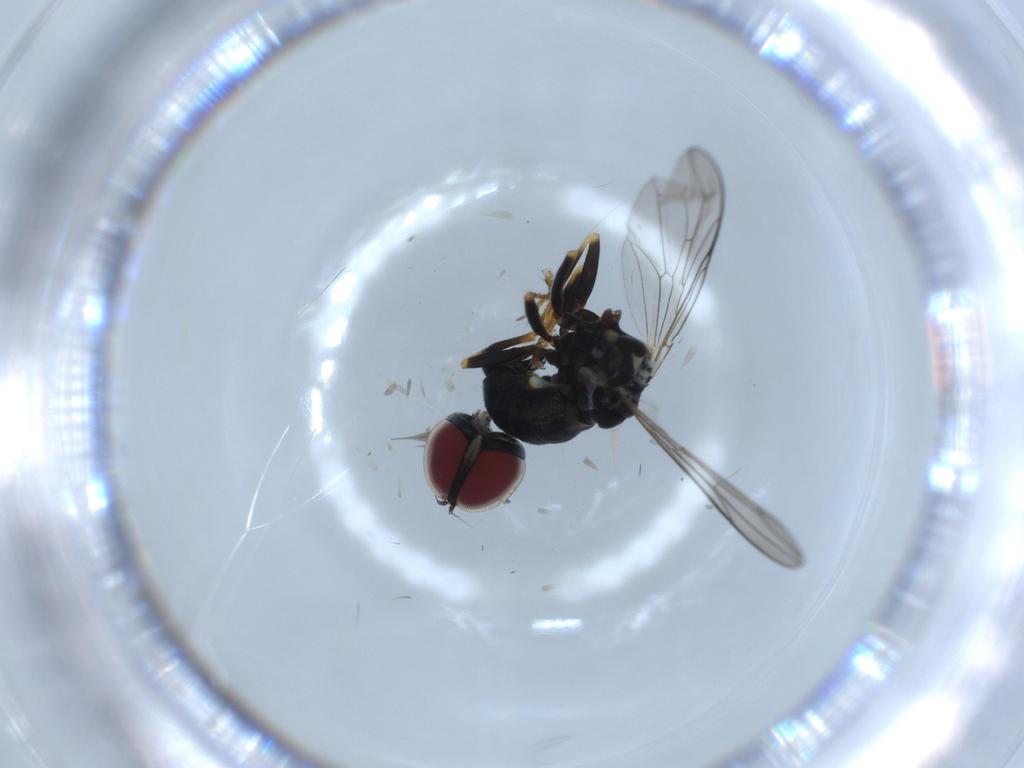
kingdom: Animalia
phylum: Arthropoda
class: Insecta
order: Diptera
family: Pipunculidae
